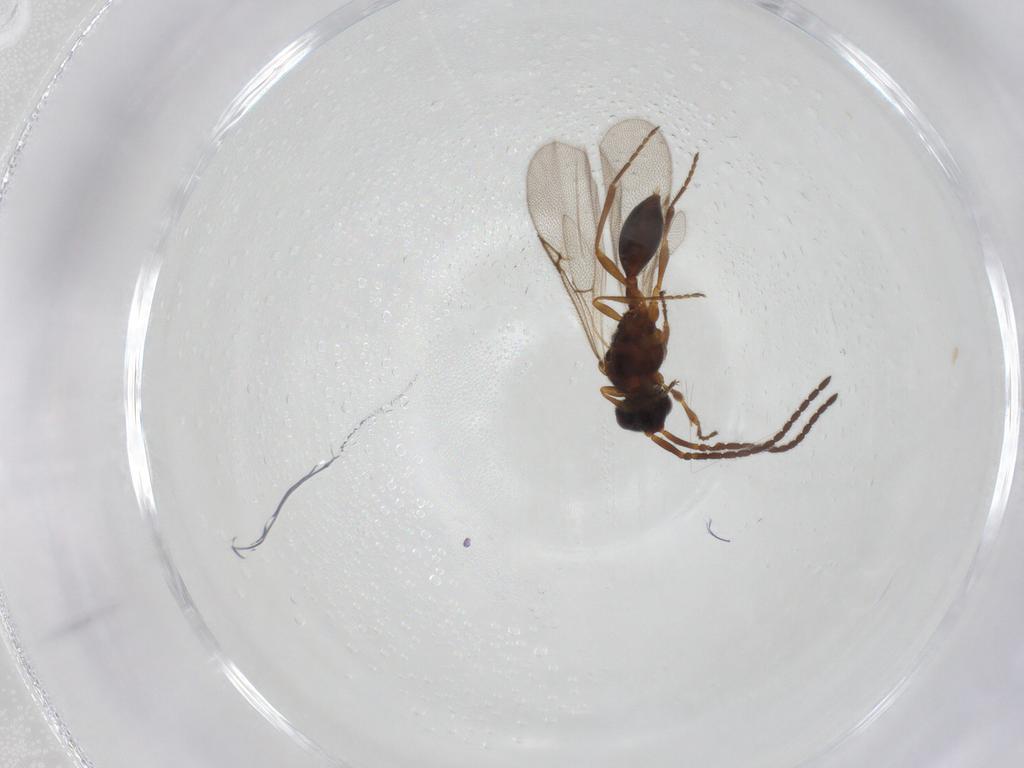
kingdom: Animalia
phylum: Arthropoda
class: Insecta
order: Hymenoptera
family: Diapriidae
